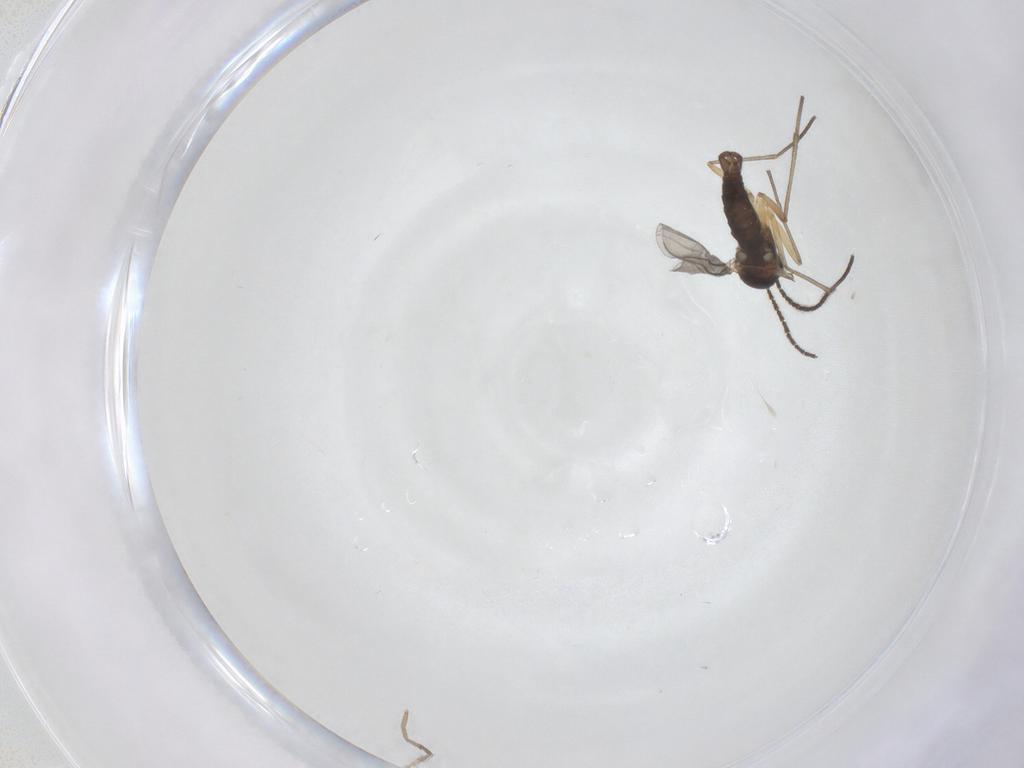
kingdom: Animalia
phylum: Arthropoda
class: Insecta
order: Diptera
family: Sciaridae
